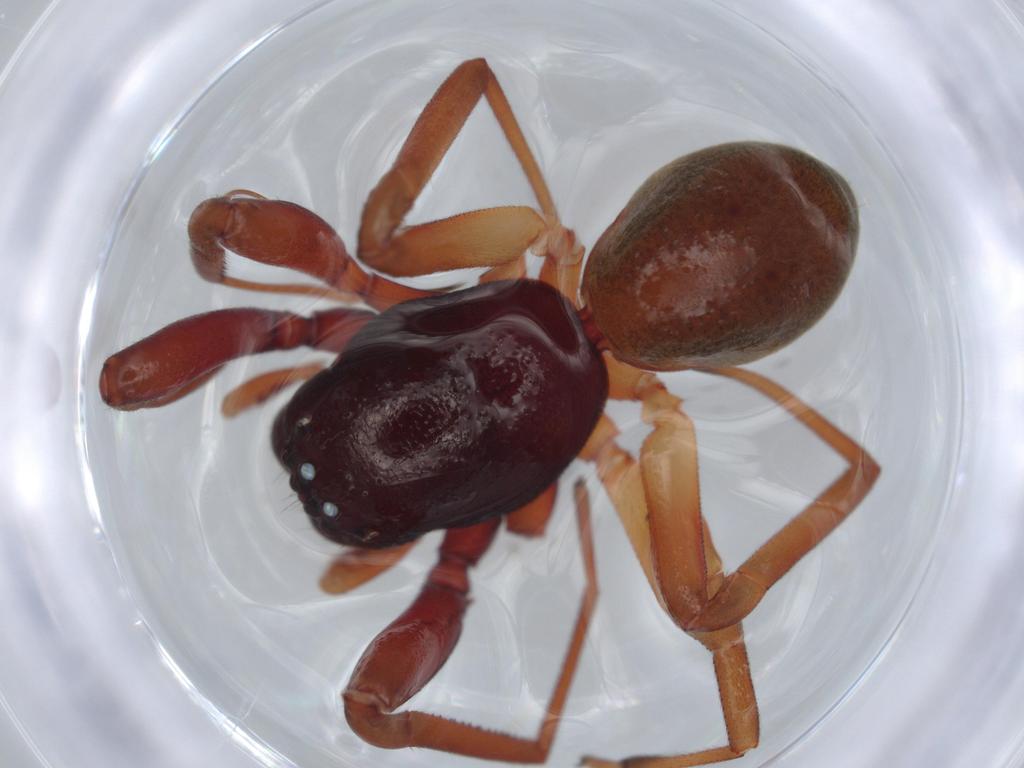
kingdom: Animalia
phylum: Arthropoda
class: Arachnida
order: Araneae
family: Trachelidae
